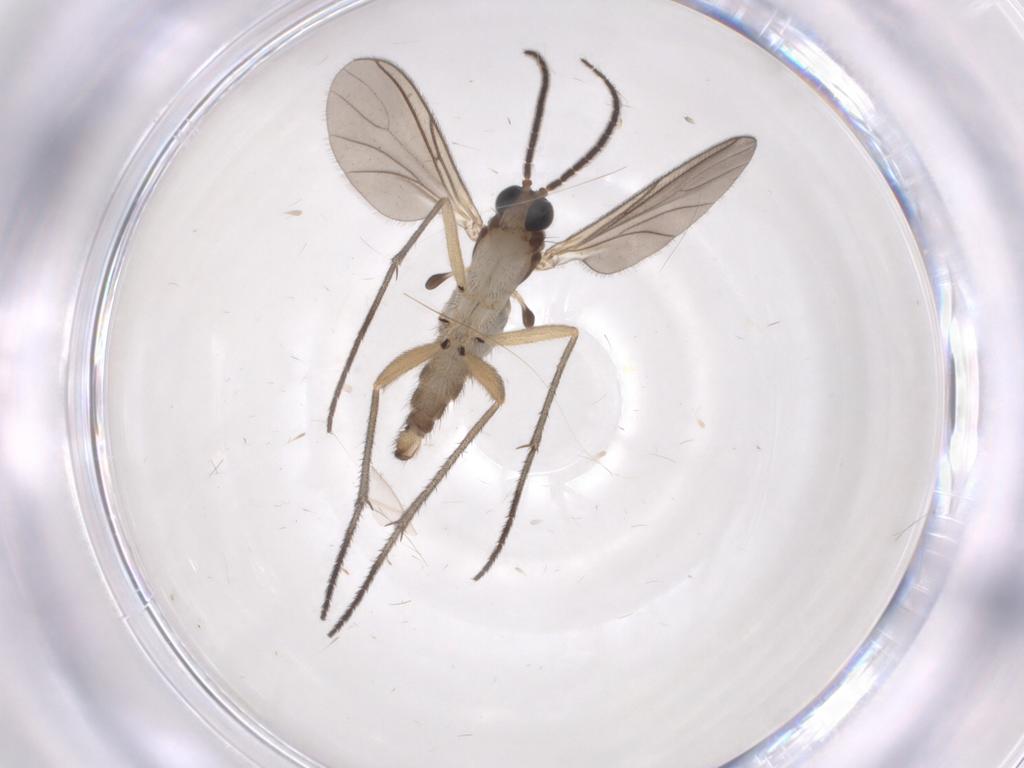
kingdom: Animalia
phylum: Arthropoda
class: Insecta
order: Diptera
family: Sciaridae
